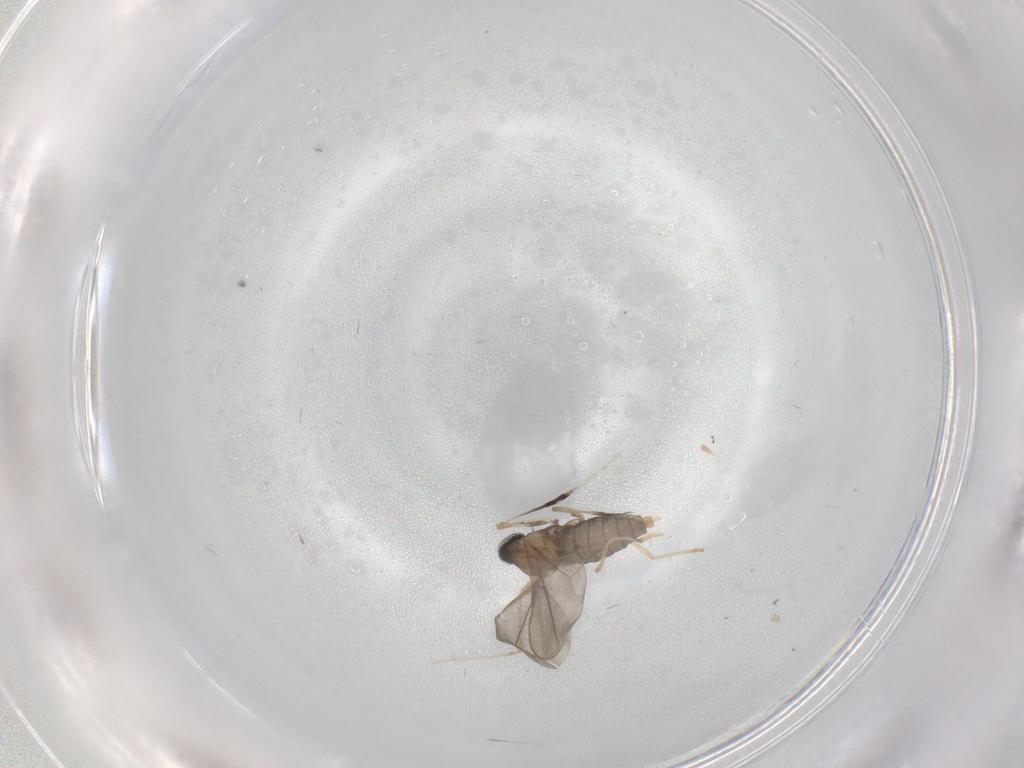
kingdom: Animalia
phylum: Arthropoda
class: Insecta
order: Diptera
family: Cecidomyiidae
